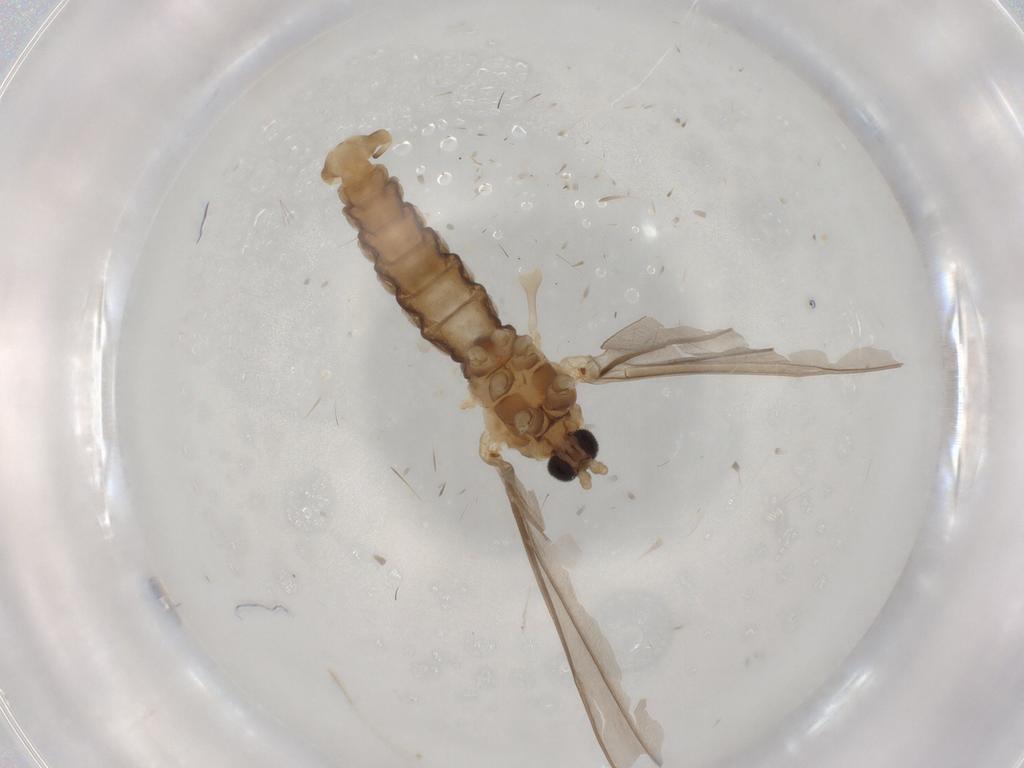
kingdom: Animalia
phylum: Arthropoda
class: Insecta
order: Diptera
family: Cecidomyiidae
